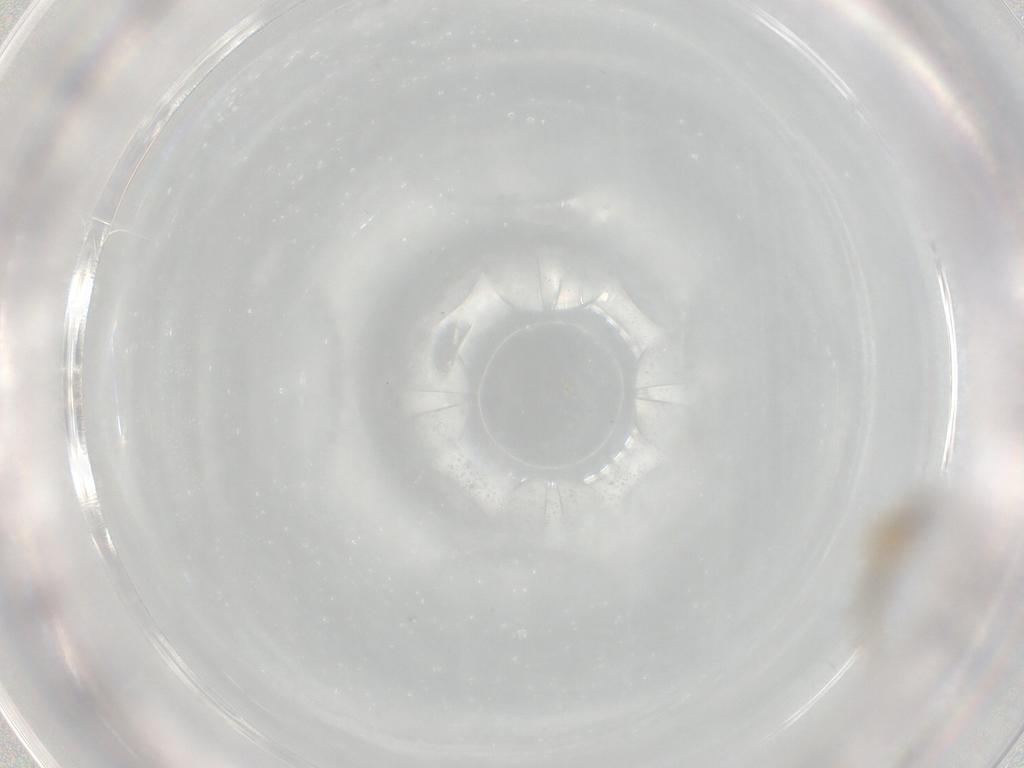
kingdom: Animalia
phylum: Arthropoda
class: Insecta
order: Diptera
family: Chironomidae
